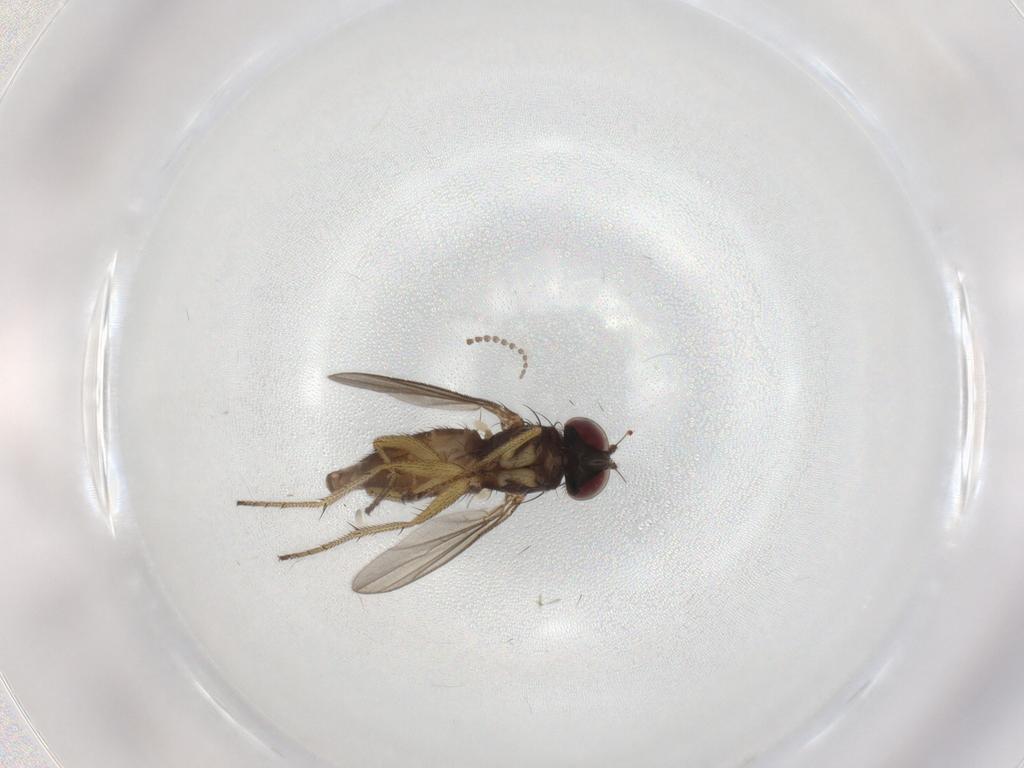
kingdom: Animalia
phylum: Arthropoda
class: Insecta
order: Diptera
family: Dolichopodidae
